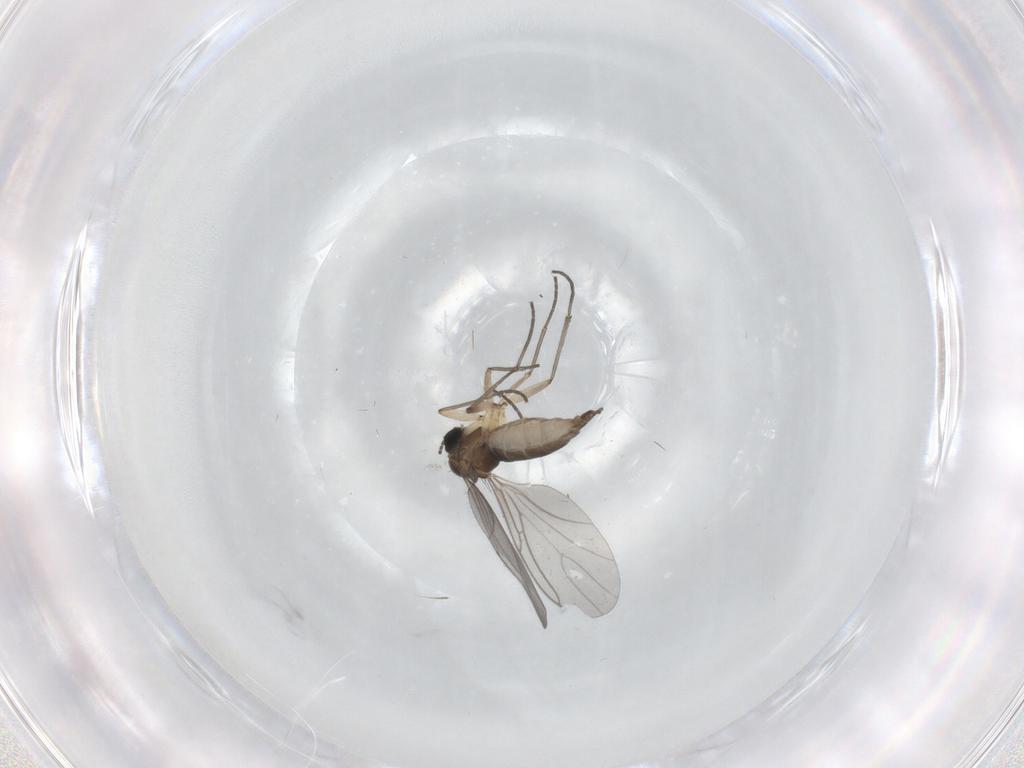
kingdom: Animalia
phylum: Arthropoda
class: Insecta
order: Diptera
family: Sciaridae
